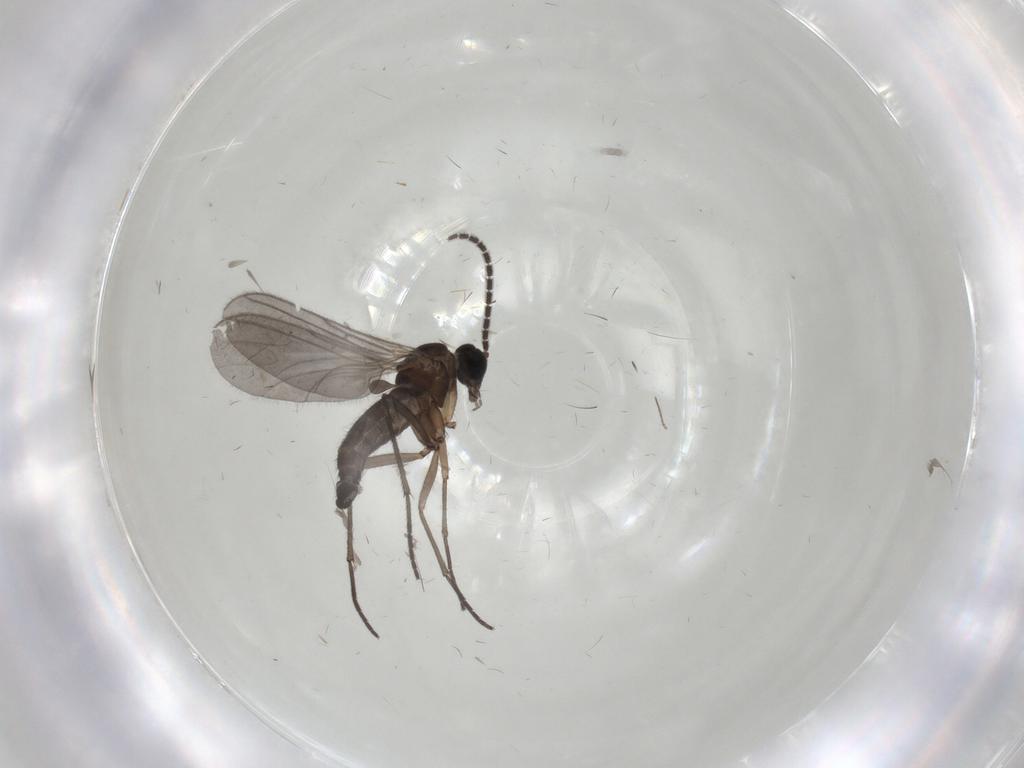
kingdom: Animalia
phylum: Arthropoda
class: Insecta
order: Diptera
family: Sciaridae
